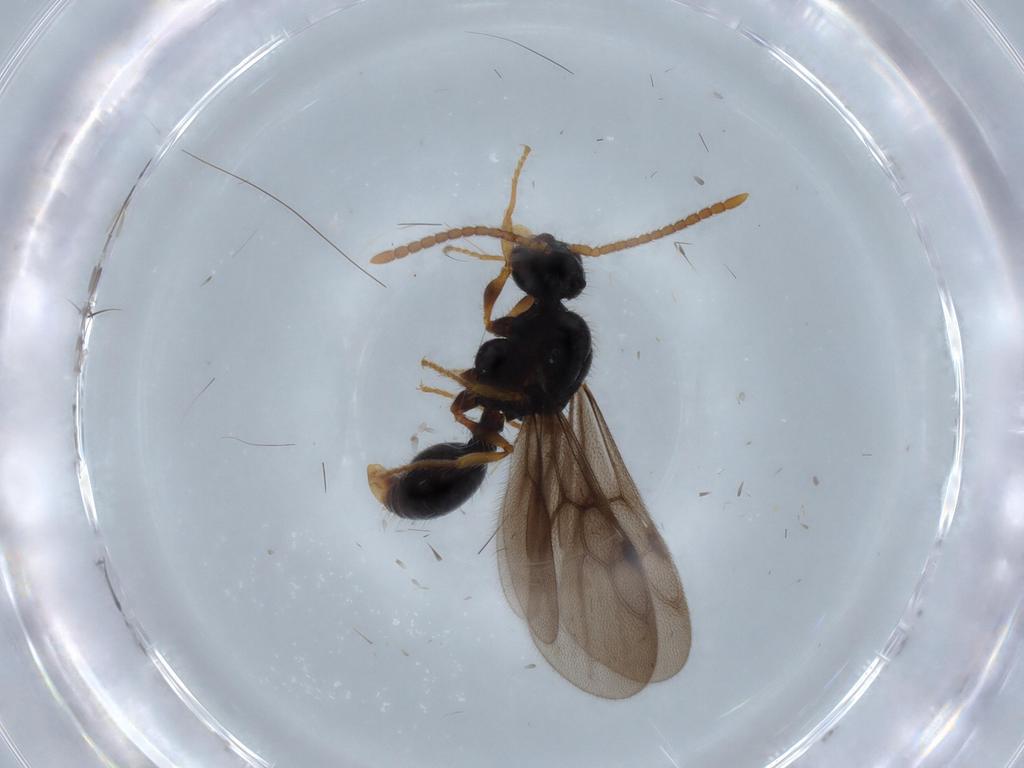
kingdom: Animalia
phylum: Arthropoda
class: Insecta
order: Hymenoptera
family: Formicidae
